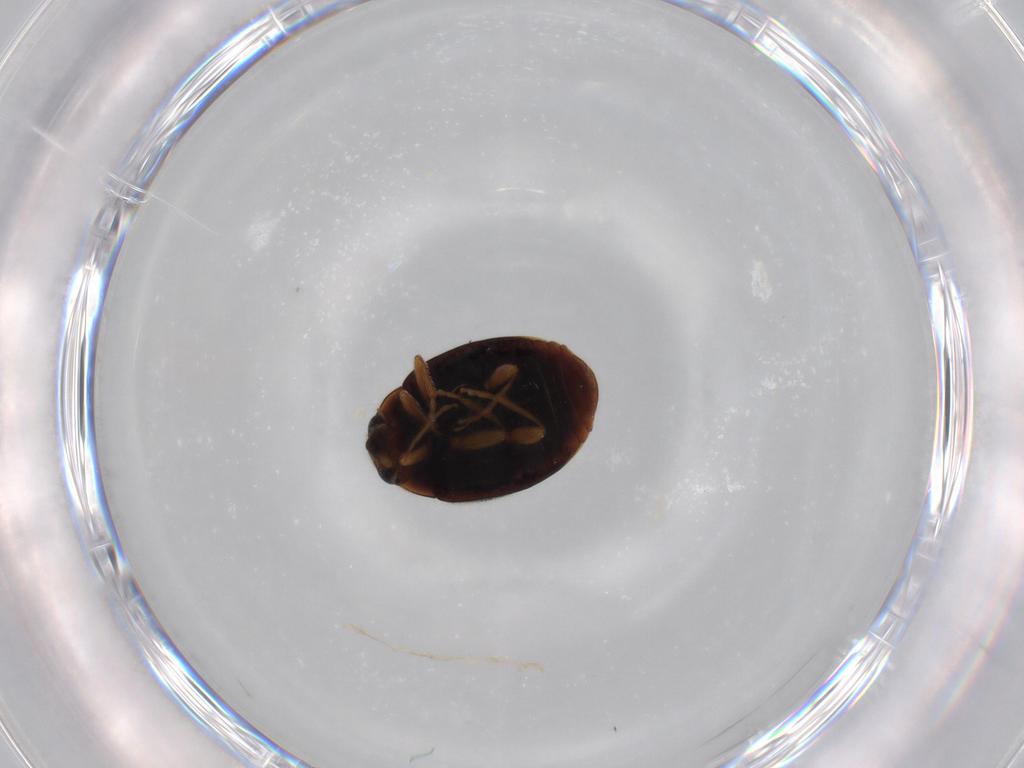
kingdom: Animalia
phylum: Arthropoda
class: Insecta
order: Coleoptera
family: Coccinellidae
